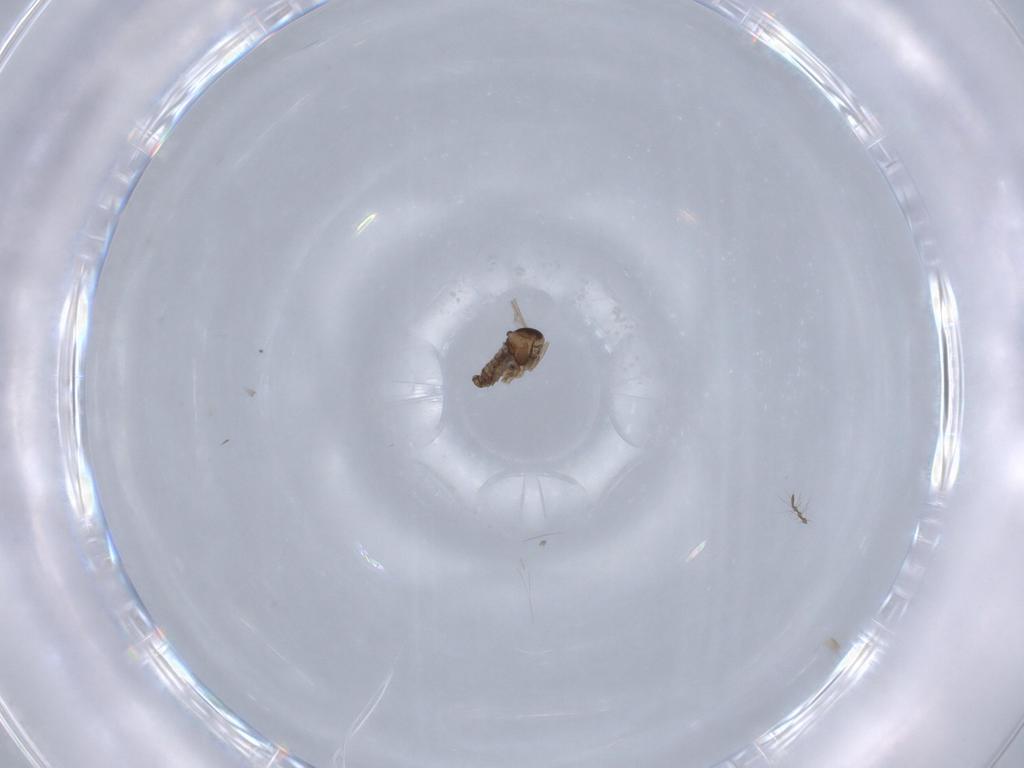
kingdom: Animalia
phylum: Arthropoda
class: Insecta
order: Diptera
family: Cecidomyiidae
